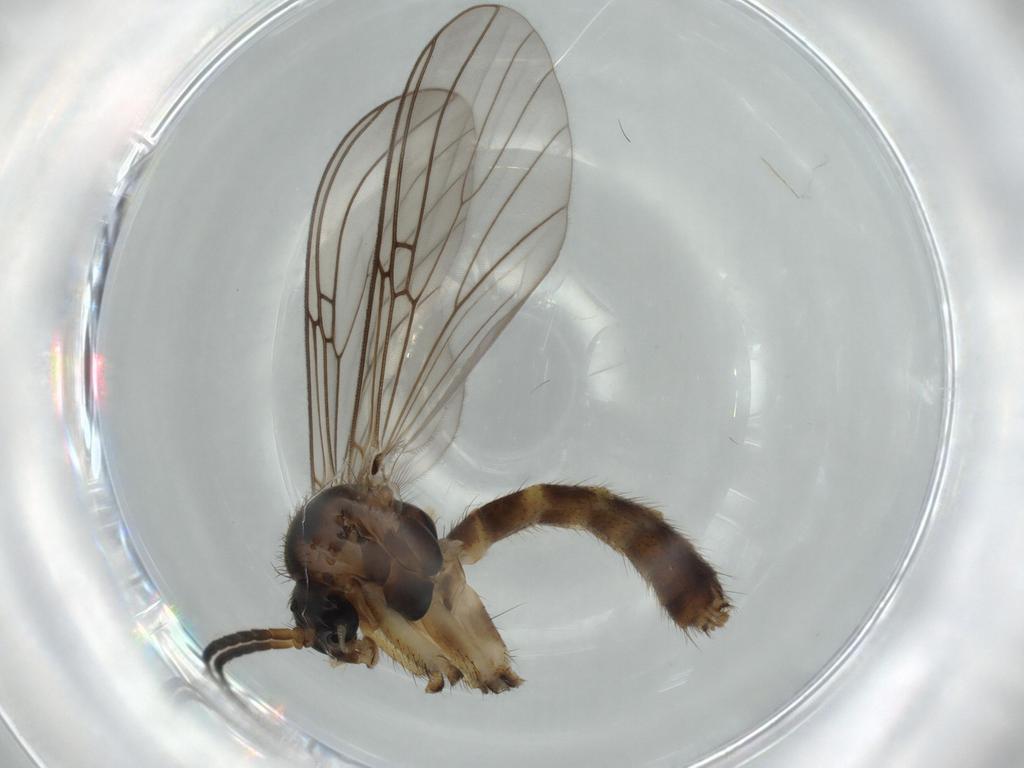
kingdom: Animalia
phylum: Arthropoda
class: Insecta
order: Diptera
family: Simuliidae
